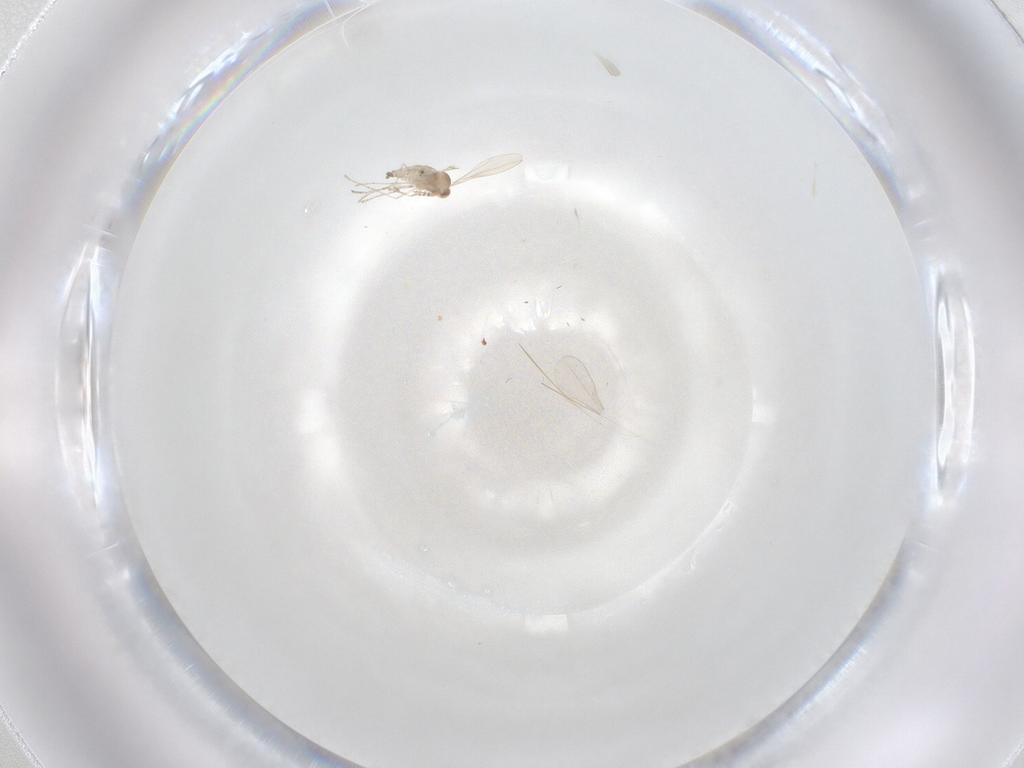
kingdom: Animalia
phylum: Arthropoda
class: Insecta
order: Diptera
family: Cecidomyiidae
